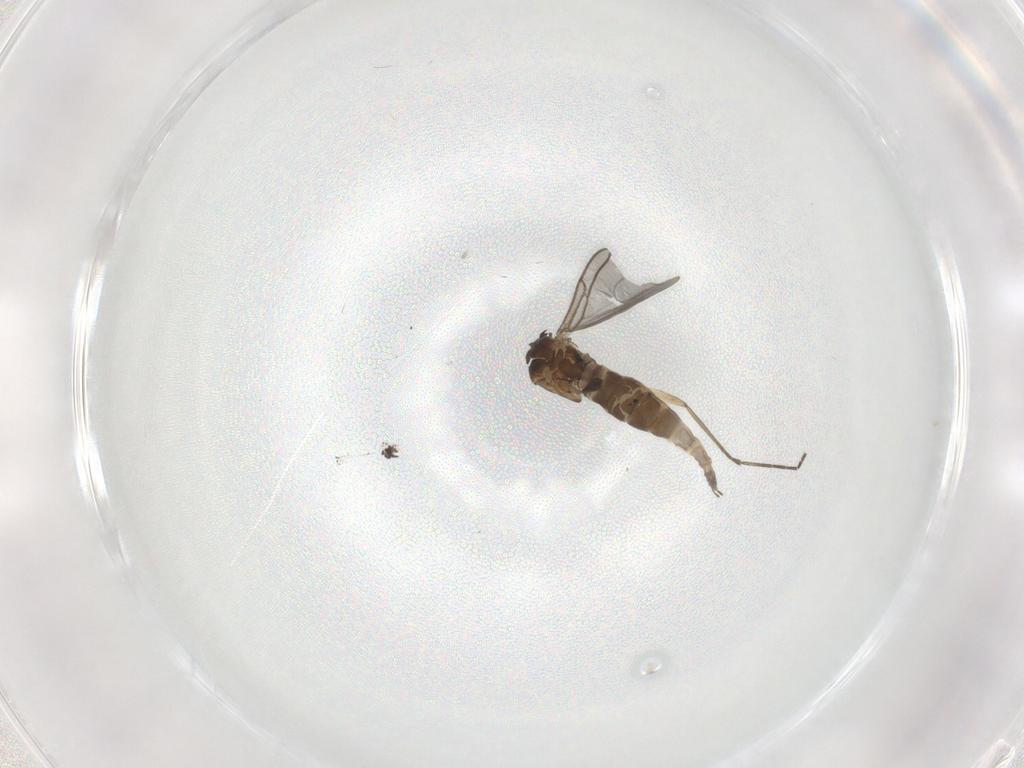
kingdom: Animalia
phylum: Arthropoda
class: Insecta
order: Diptera
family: Sciaridae
